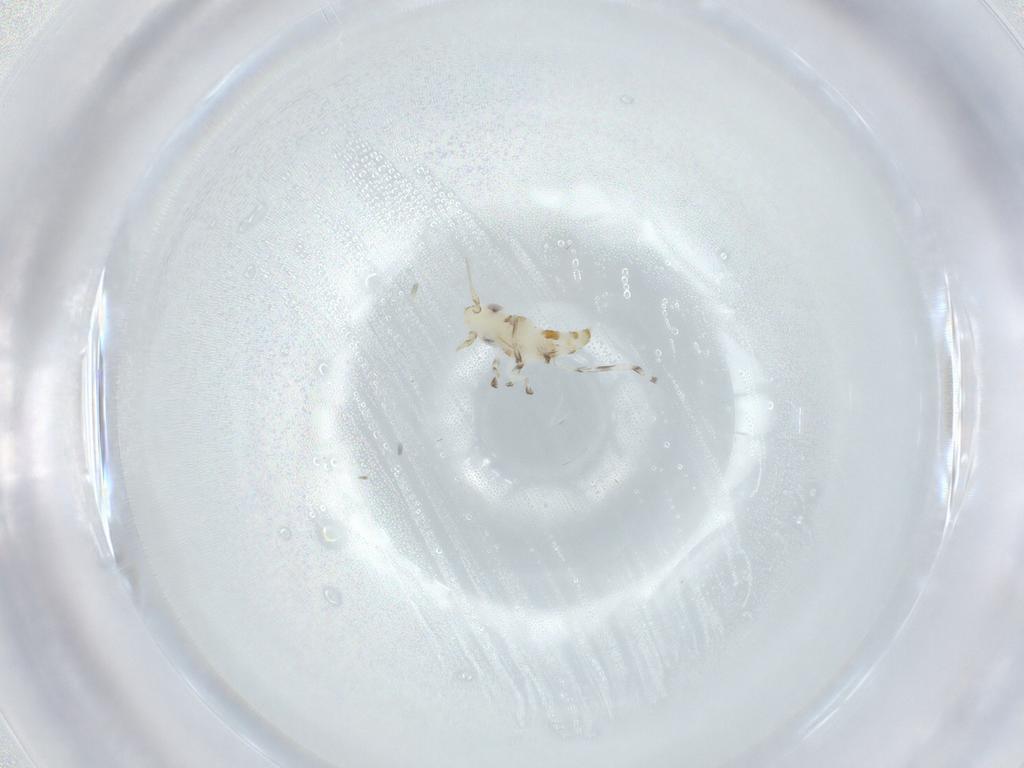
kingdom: Animalia
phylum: Arthropoda
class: Insecta
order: Hemiptera
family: Cicadellidae
